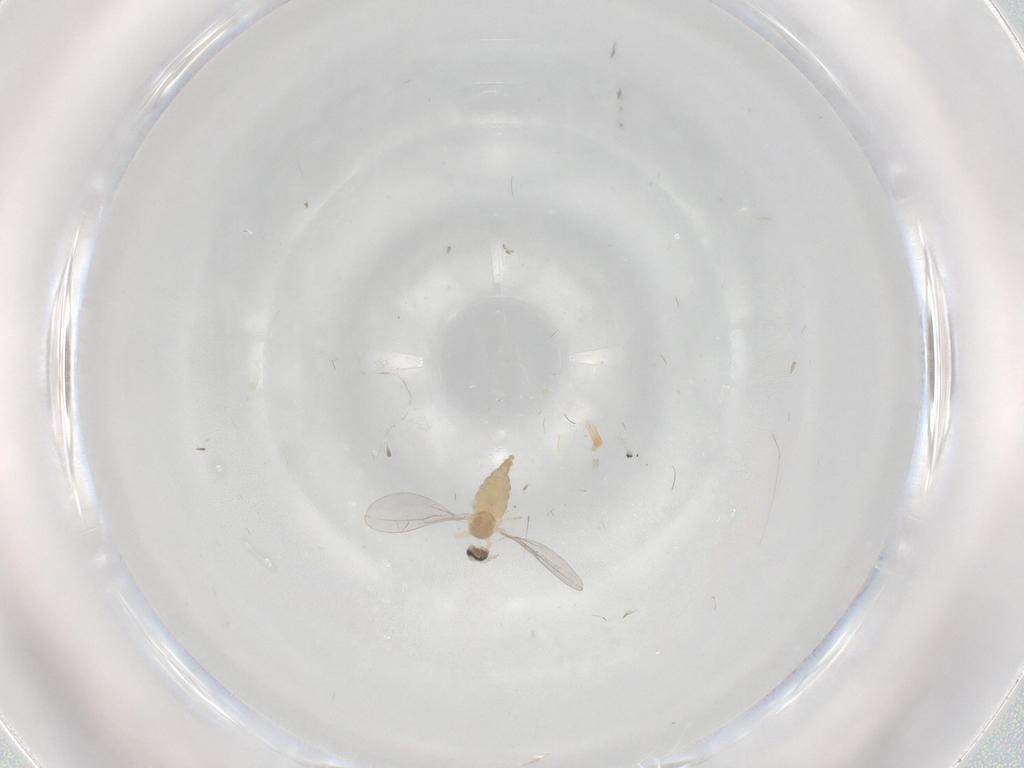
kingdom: Animalia
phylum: Arthropoda
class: Insecta
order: Diptera
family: Cecidomyiidae
